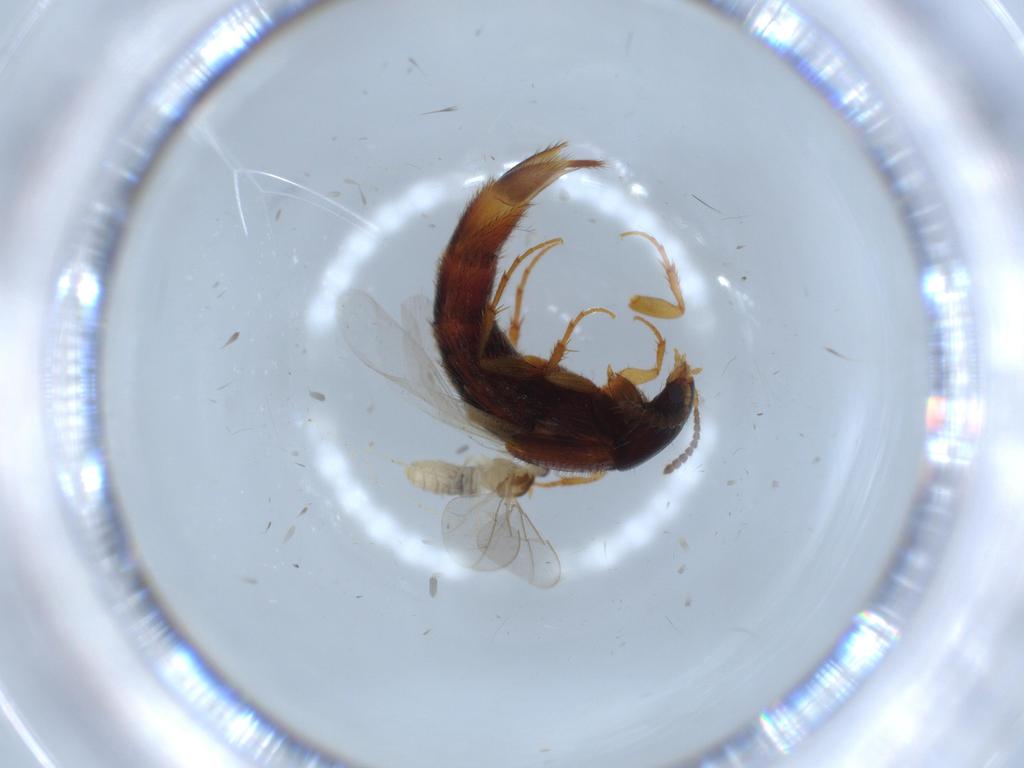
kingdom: Animalia
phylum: Arthropoda
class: Insecta
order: Coleoptera
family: Staphylinidae
